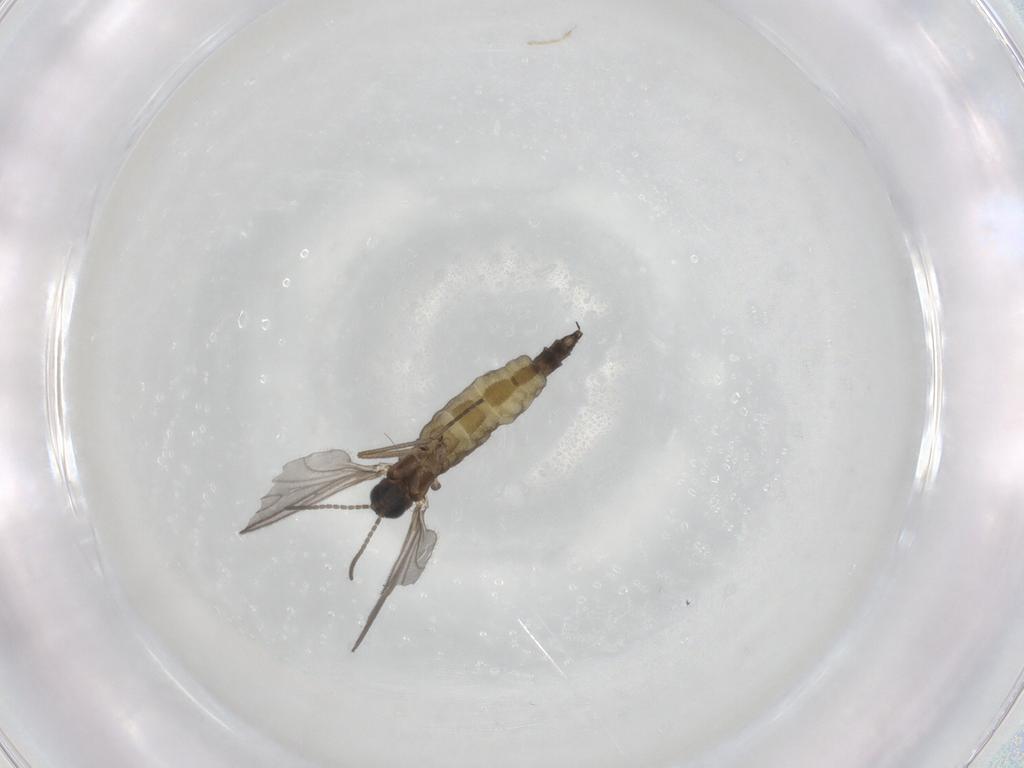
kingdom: Animalia
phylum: Arthropoda
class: Insecta
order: Diptera
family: Sciaridae
